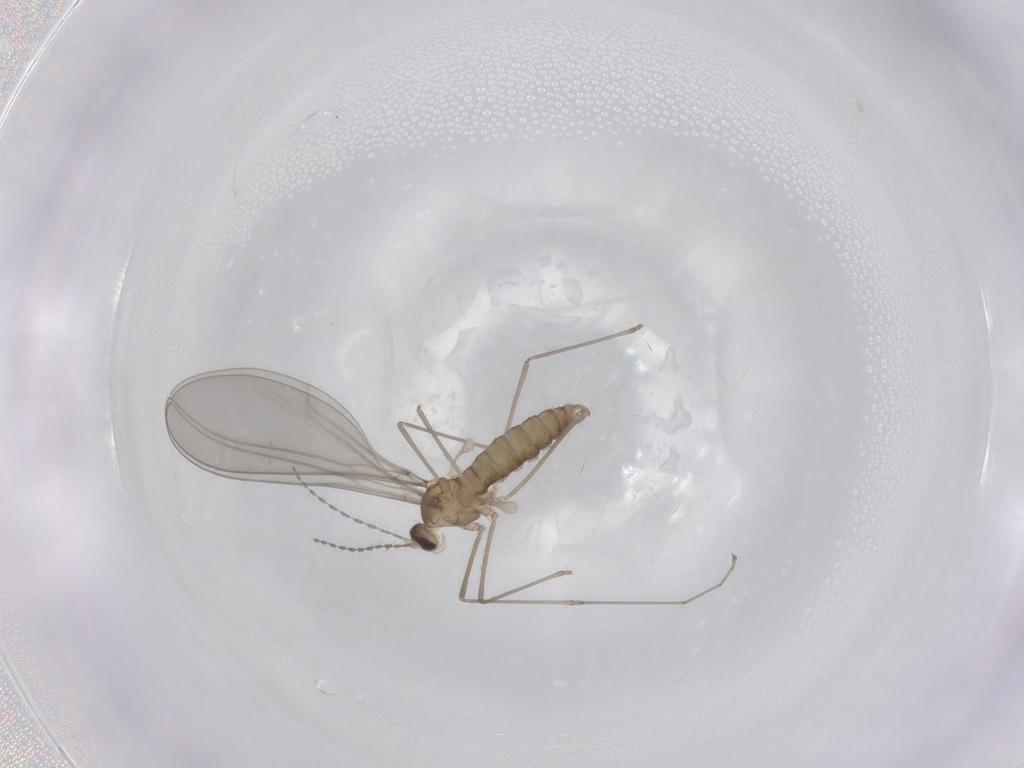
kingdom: Animalia
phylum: Arthropoda
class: Insecta
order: Diptera
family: Cecidomyiidae
